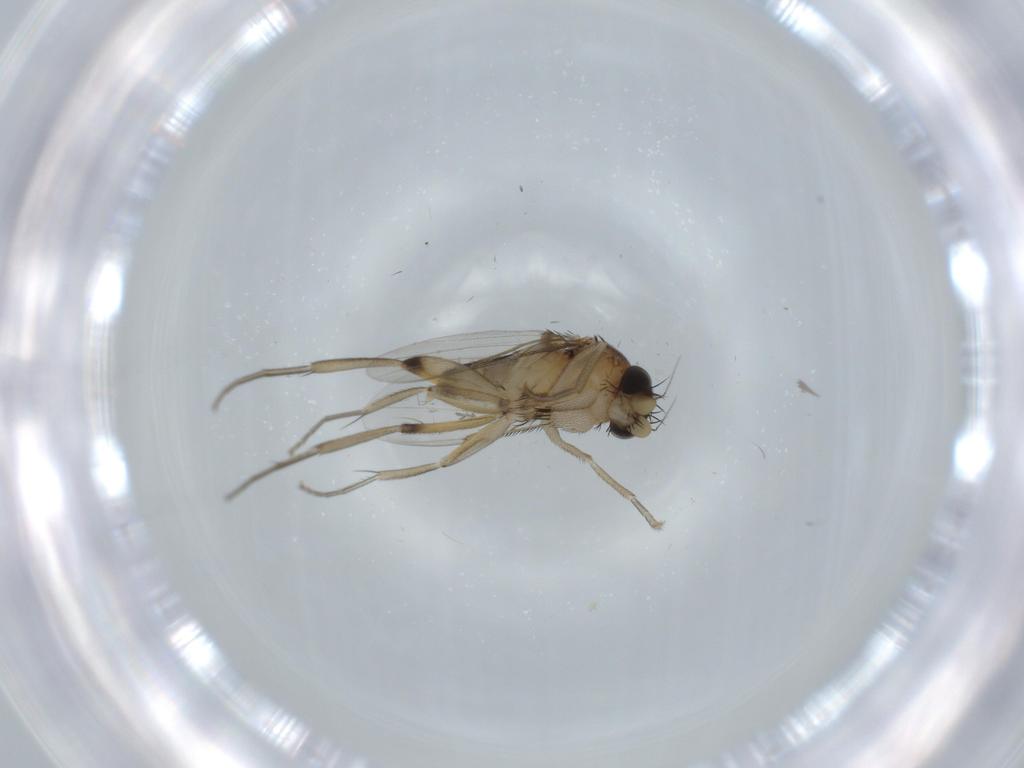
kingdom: Animalia
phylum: Arthropoda
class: Insecta
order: Diptera
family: Phoridae
